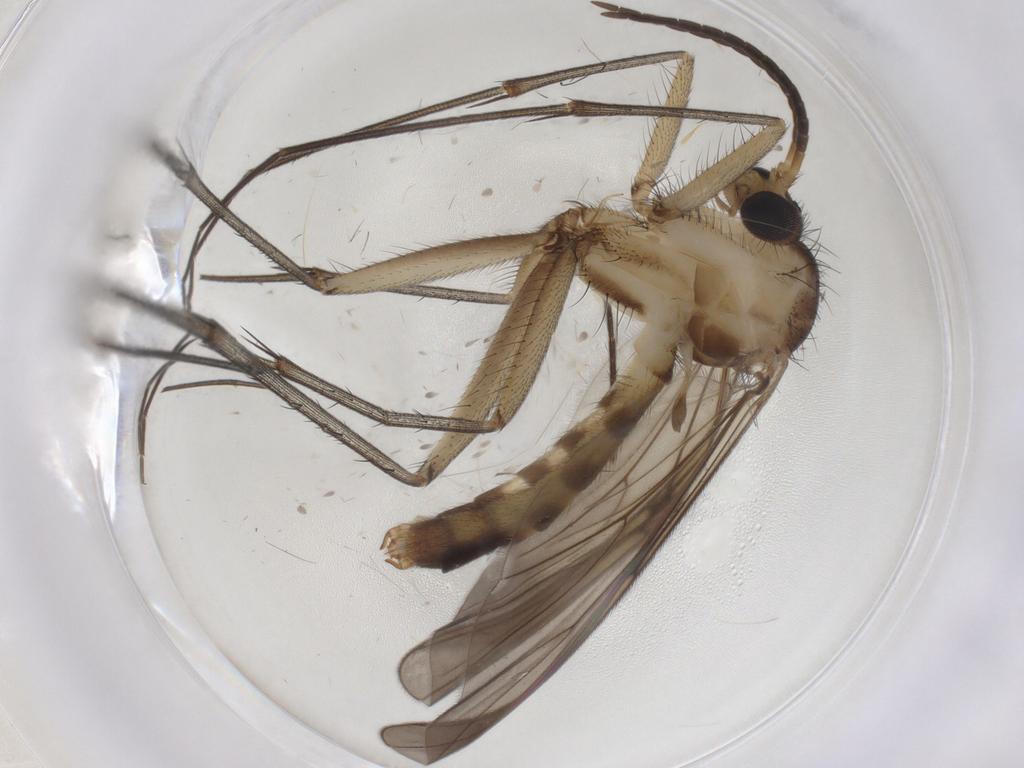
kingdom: Animalia
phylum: Arthropoda
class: Insecta
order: Diptera
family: Mycetophilidae
